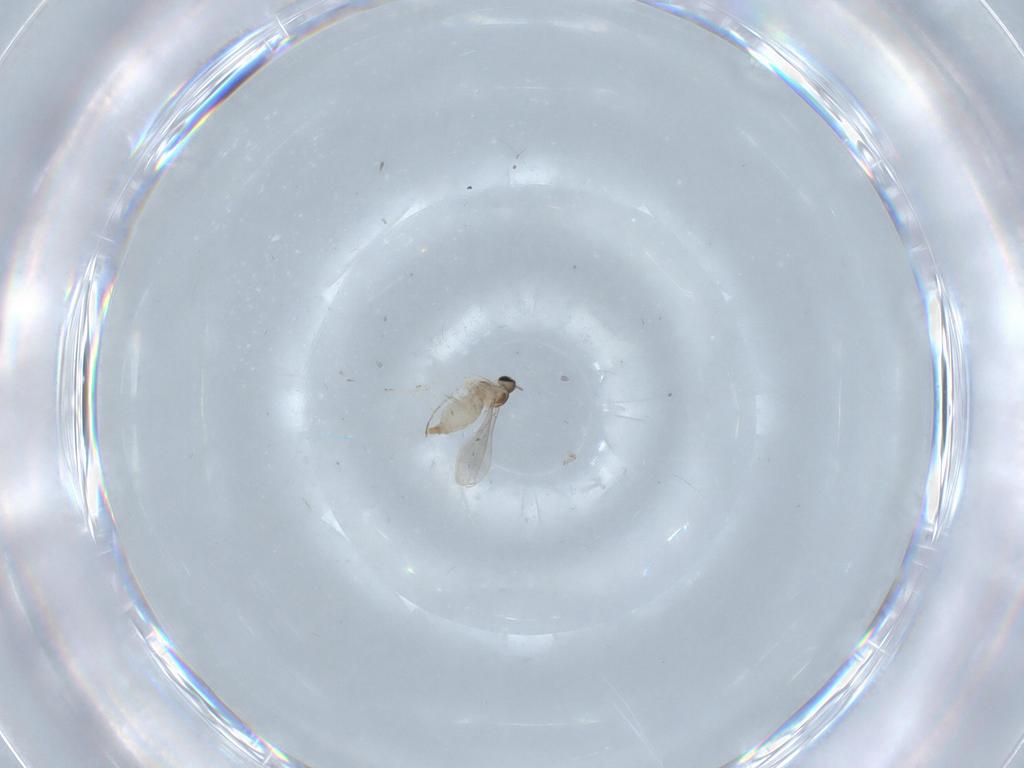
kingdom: Animalia
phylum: Arthropoda
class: Insecta
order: Diptera
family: Chironomidae
